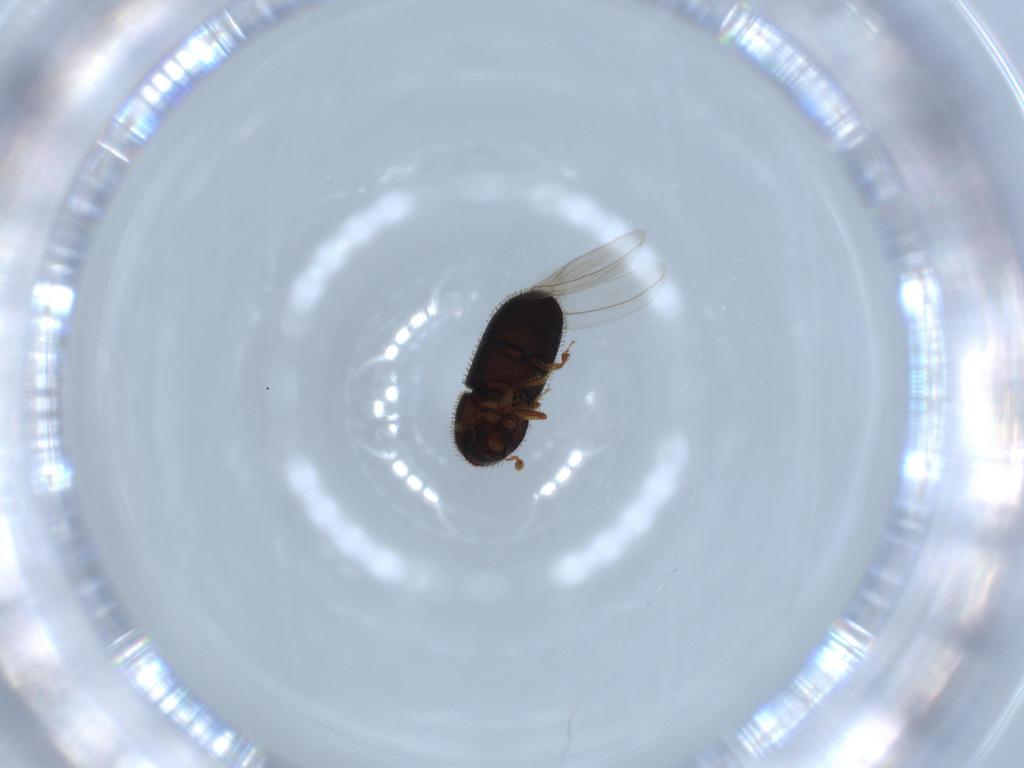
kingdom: Animalia
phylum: Arthropoda
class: Insecta
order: Coleoptera
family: Curculionidae
